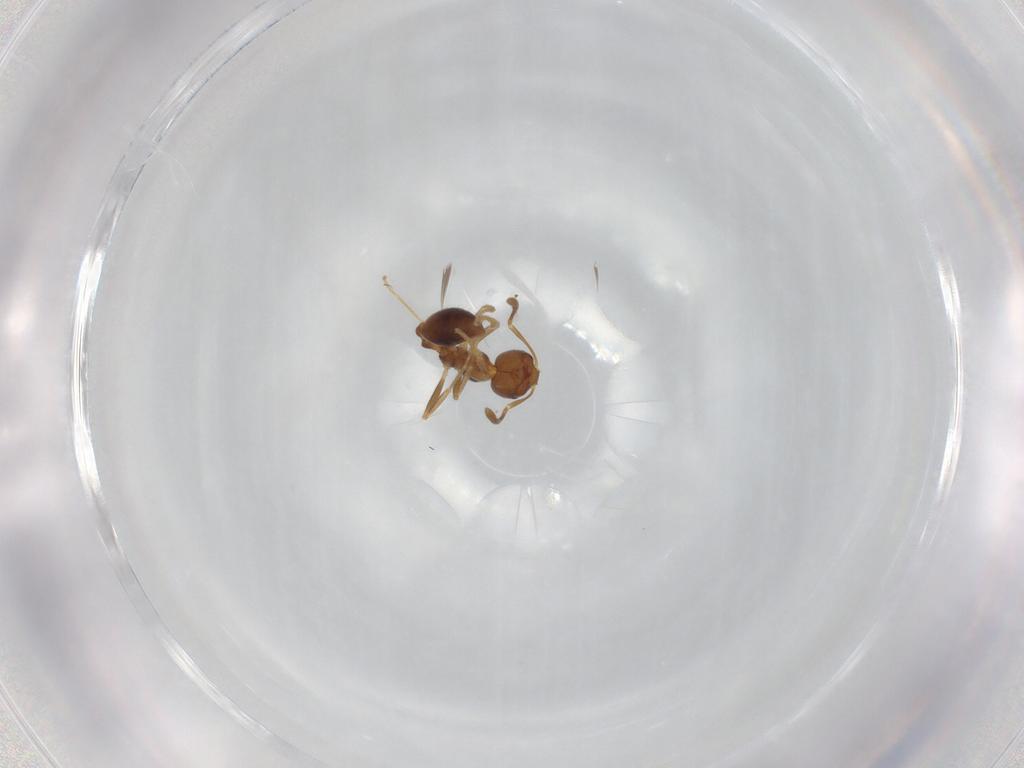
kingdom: Animalia
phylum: Arthropoda
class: Insecta
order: Hymenoptera
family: Formicidae
